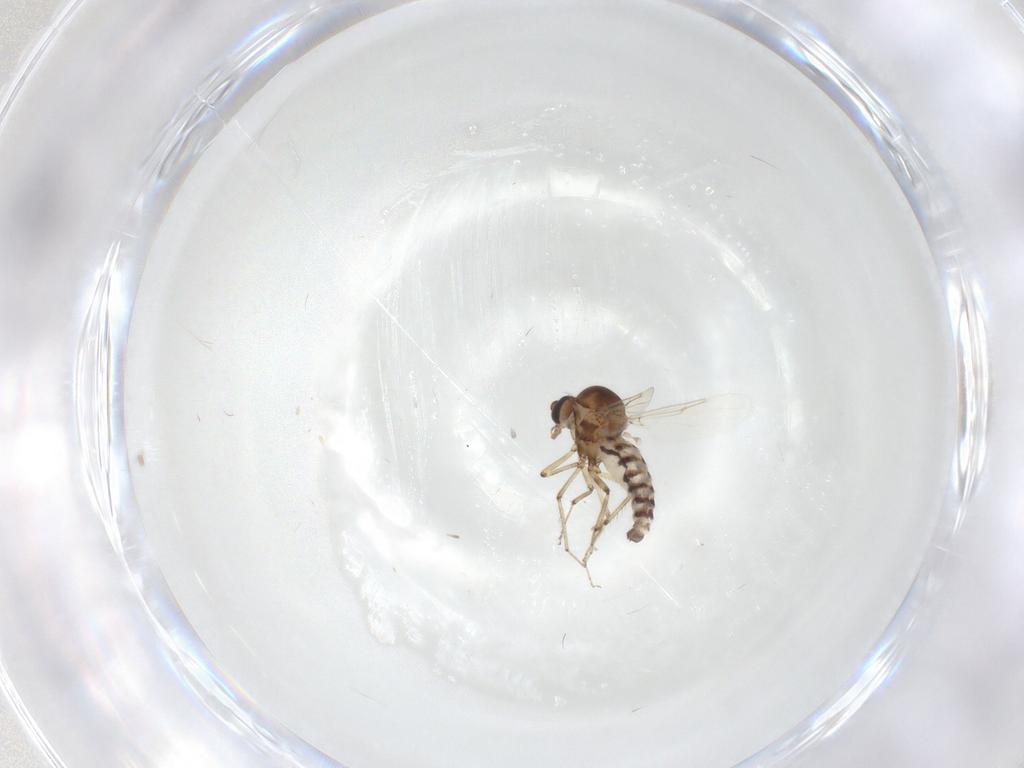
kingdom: Animalia
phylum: Arthropoda
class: Insecta
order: Diptera
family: Ceratopogonidae
